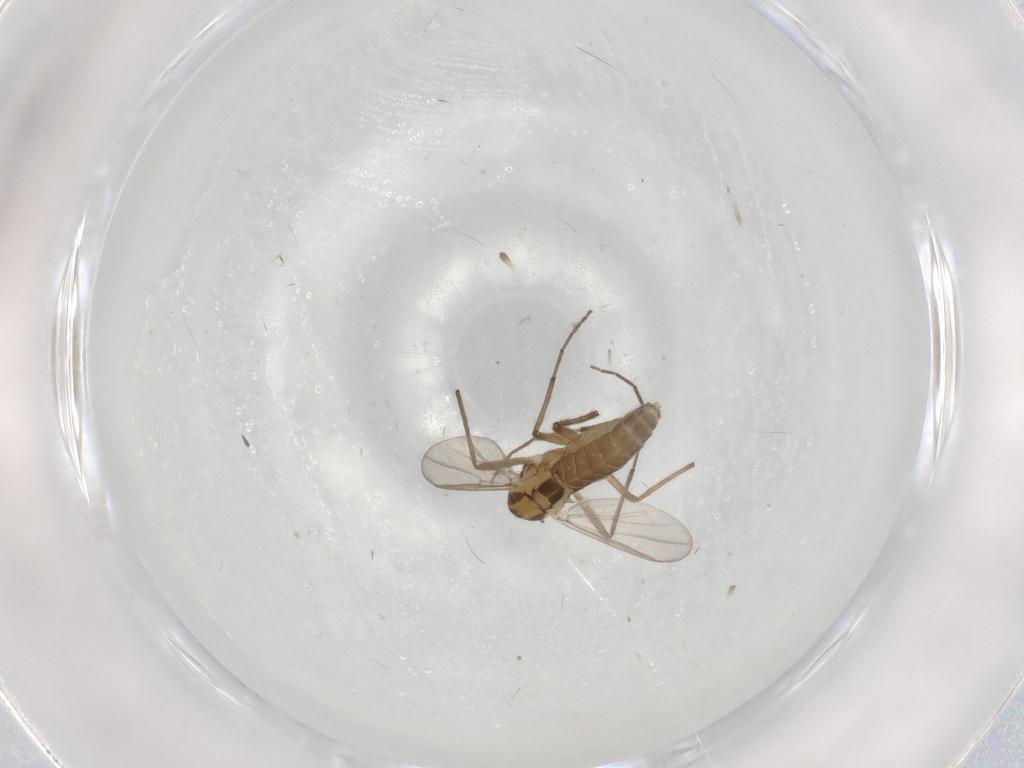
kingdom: Animalia
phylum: Arthropoda
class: Insecta
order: Diptera
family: Chironomidae
